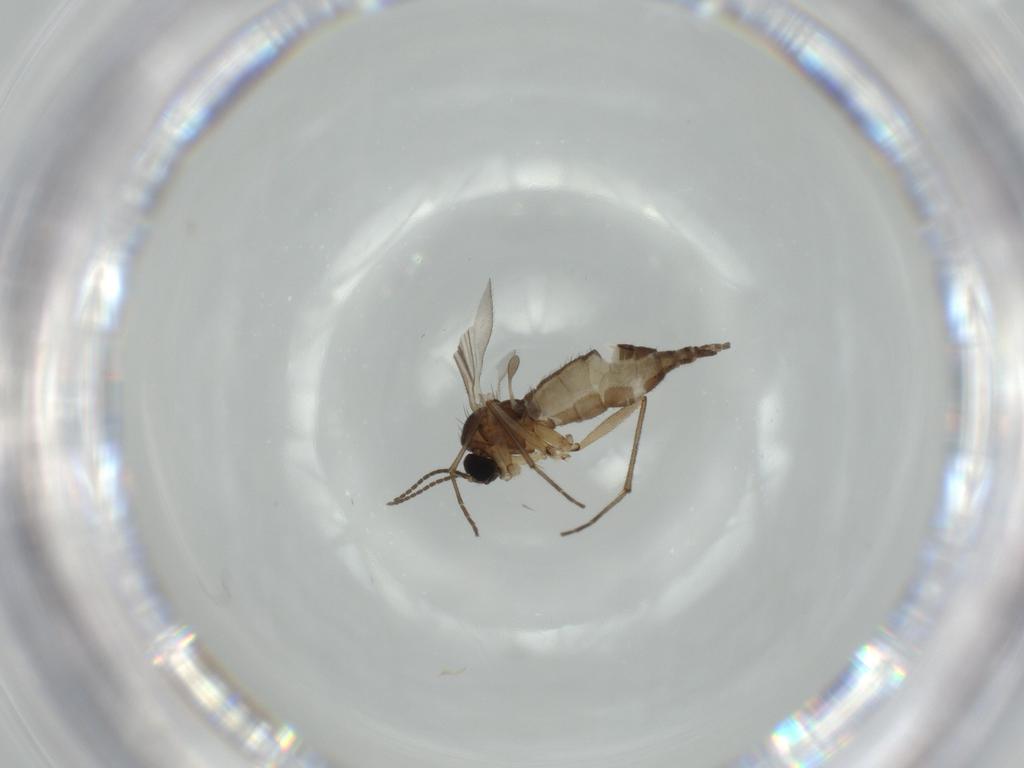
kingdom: Animalia
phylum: Arthropoda
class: Insecta
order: Diptera
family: Sciaridae
